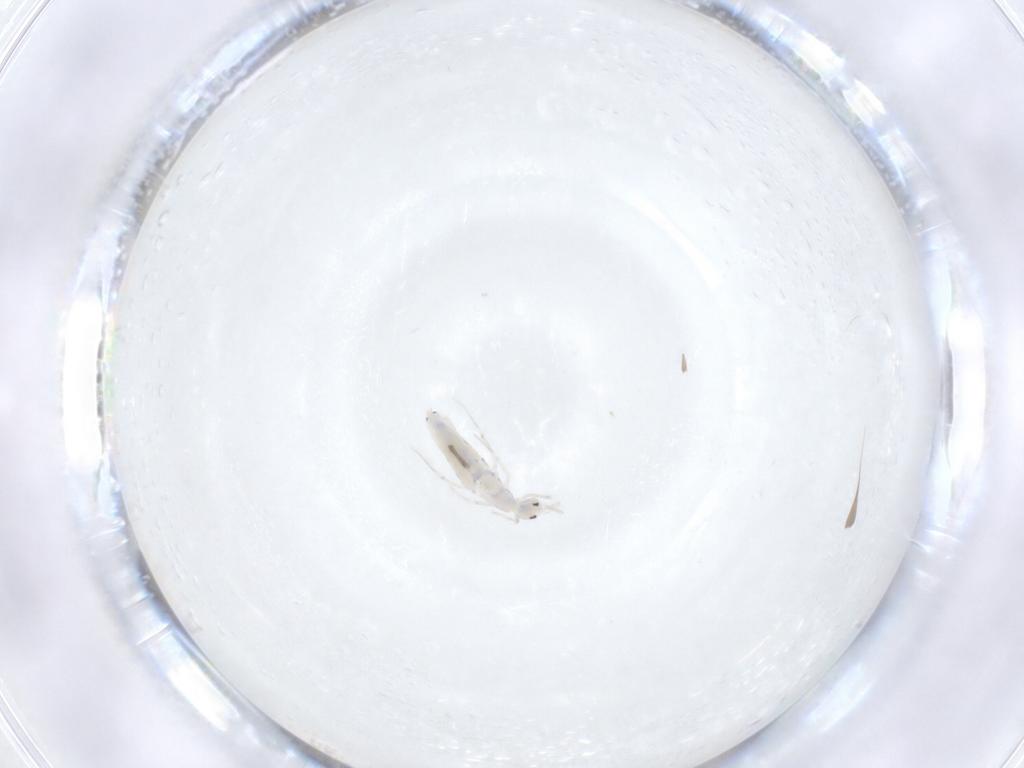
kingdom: Animalia
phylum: Arthropoda
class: Collembola
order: Entomobryomorpha
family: Entomobryidae
